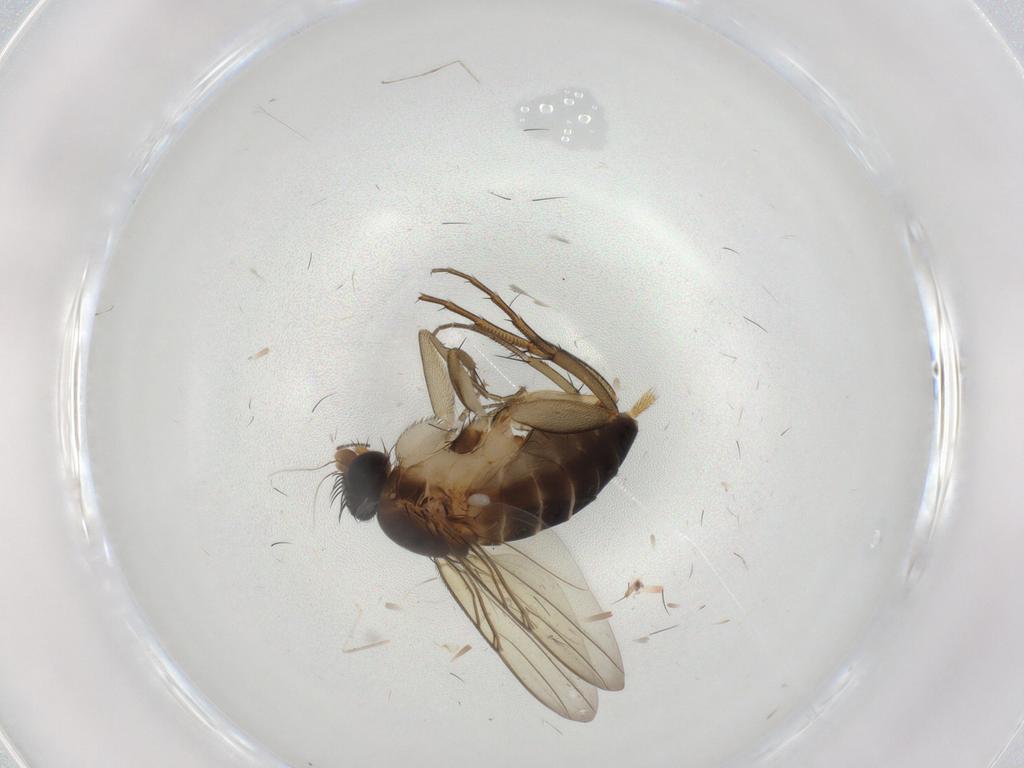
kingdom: Animalia
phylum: Arthropoda
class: Insecta
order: Diptera
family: Phoridae
